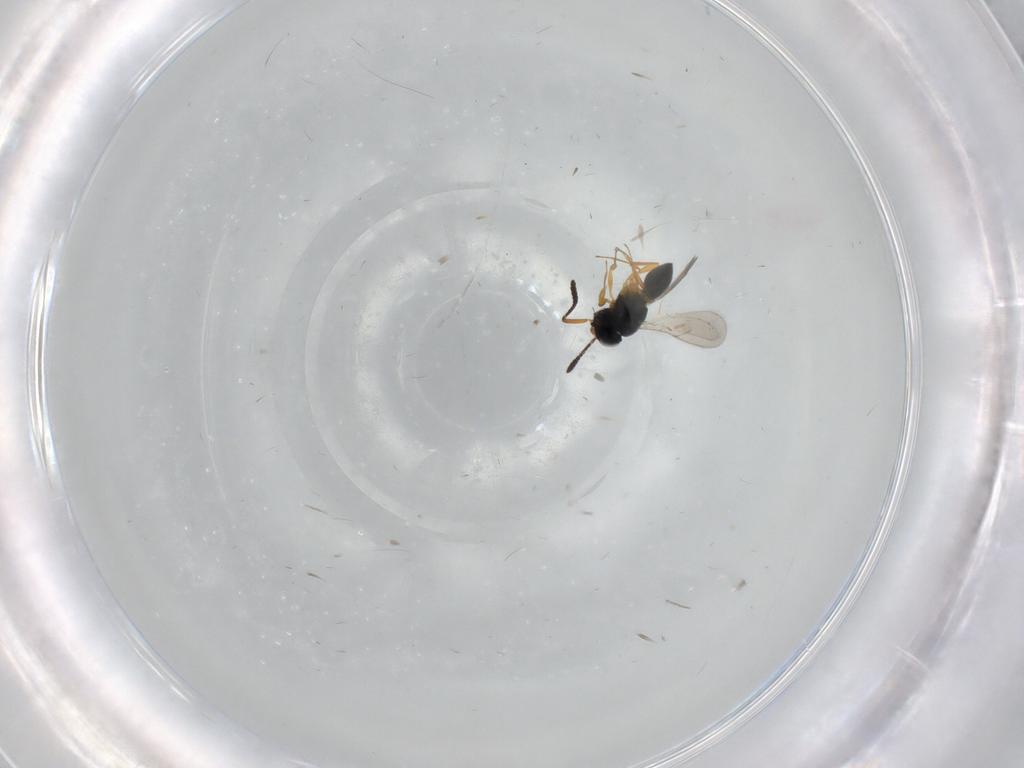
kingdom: Animalia
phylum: Arthropoda
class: Insecta
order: Hymenoptera
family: Scelionidae
